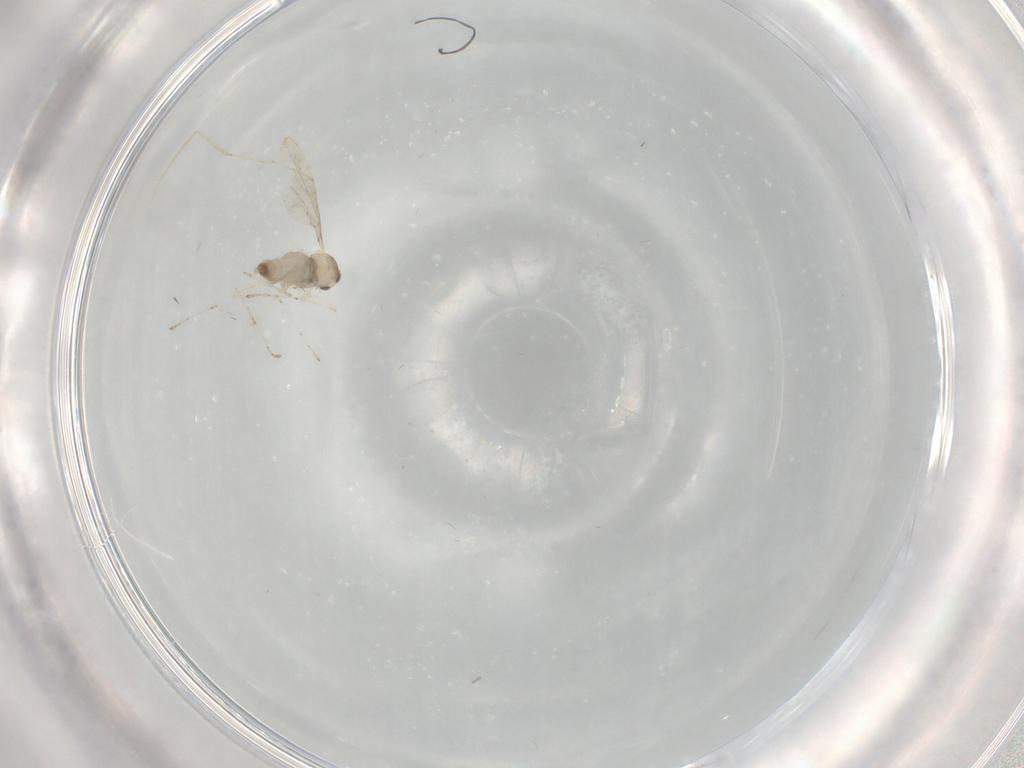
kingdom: Animalia
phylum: Arthropoda
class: Insecta
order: Diptera
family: Cecidomyiidae
